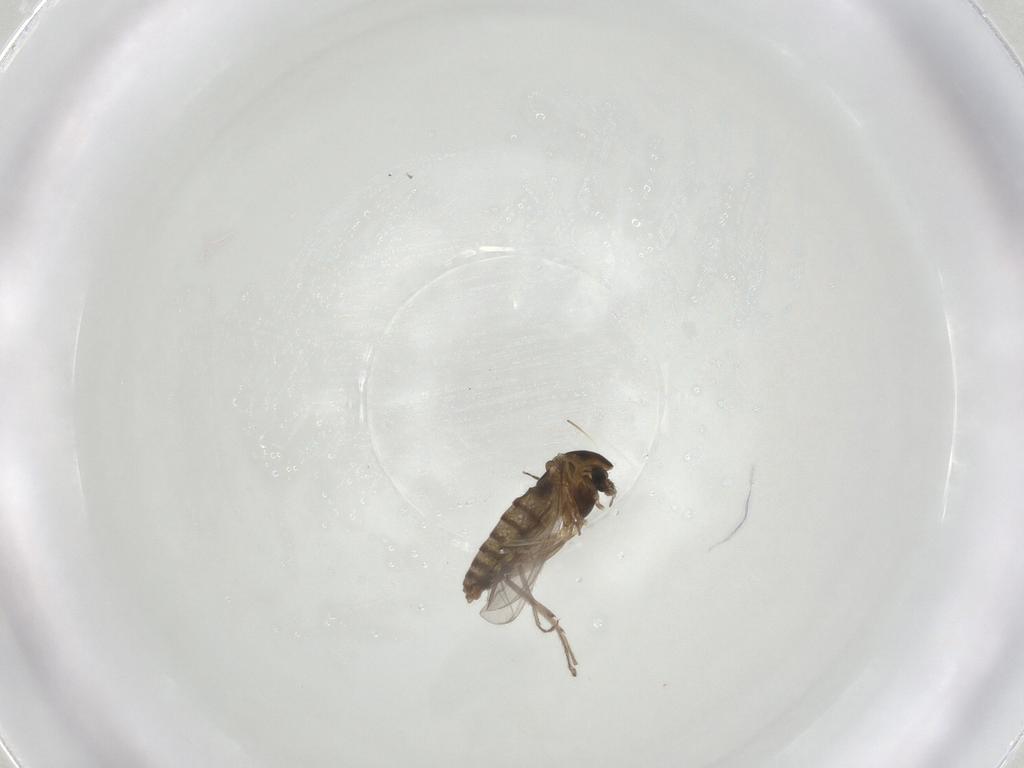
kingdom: Animalia
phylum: Arthropoda
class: Insecta
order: Diptera
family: Chironomidae
